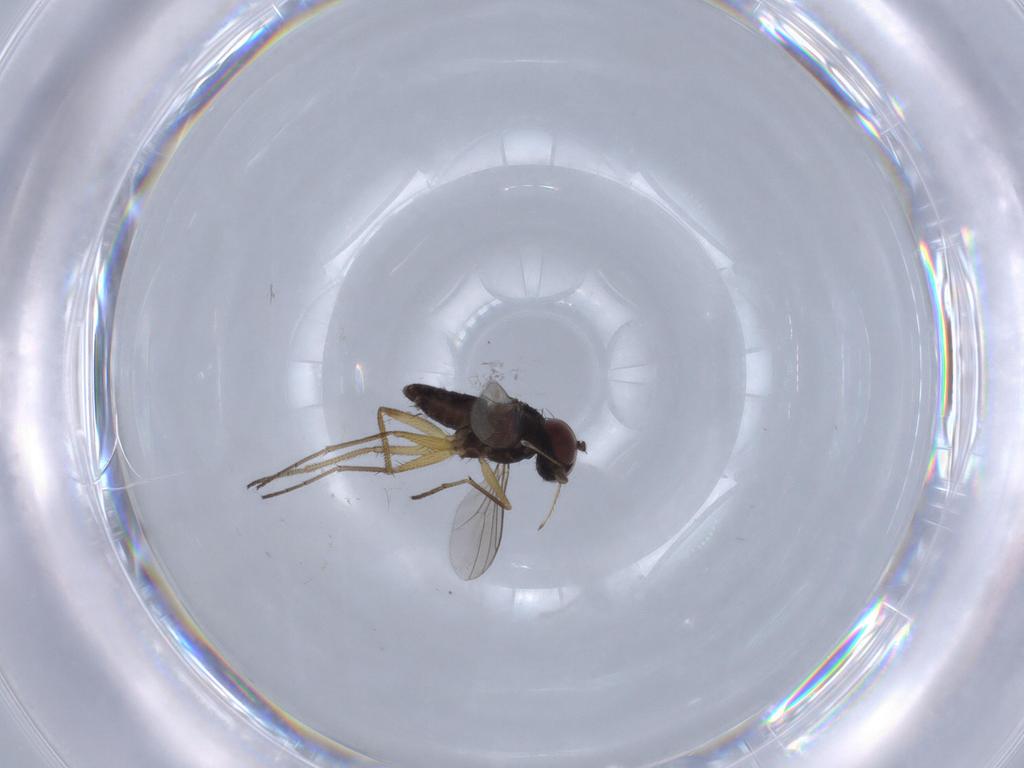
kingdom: Animalia
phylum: Arthropoda
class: Insecta
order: Diptera
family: Dolichopodidae
